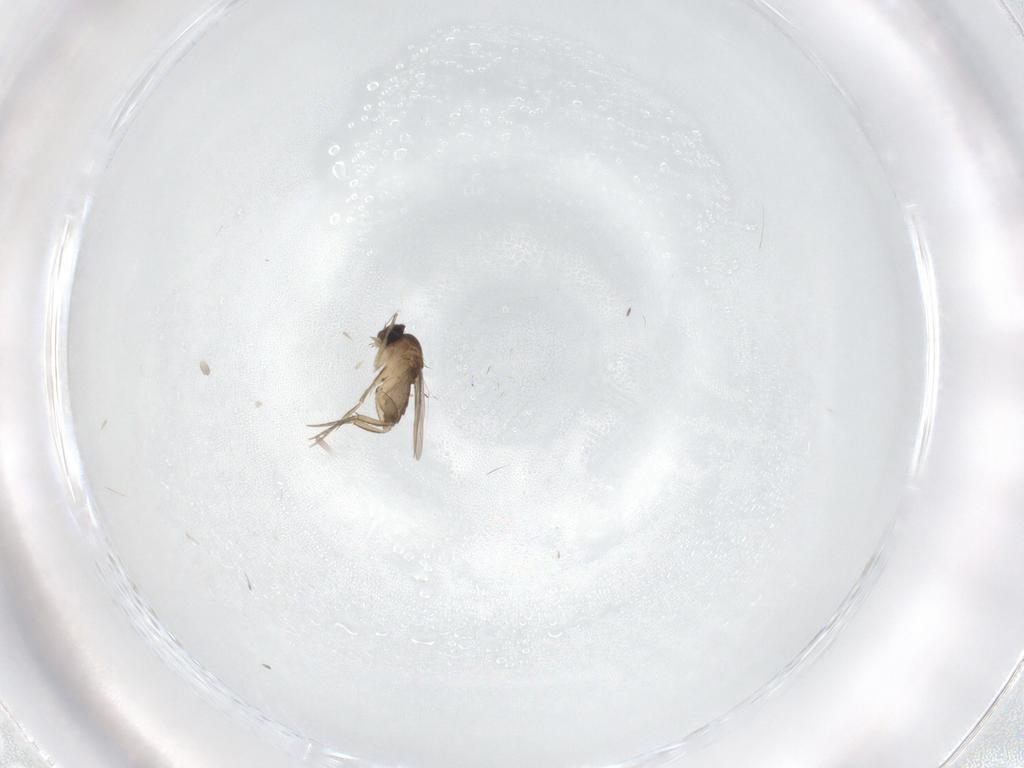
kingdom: Animalia
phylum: Arthropoda
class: Insecta
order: Diptera
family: Phoridae
